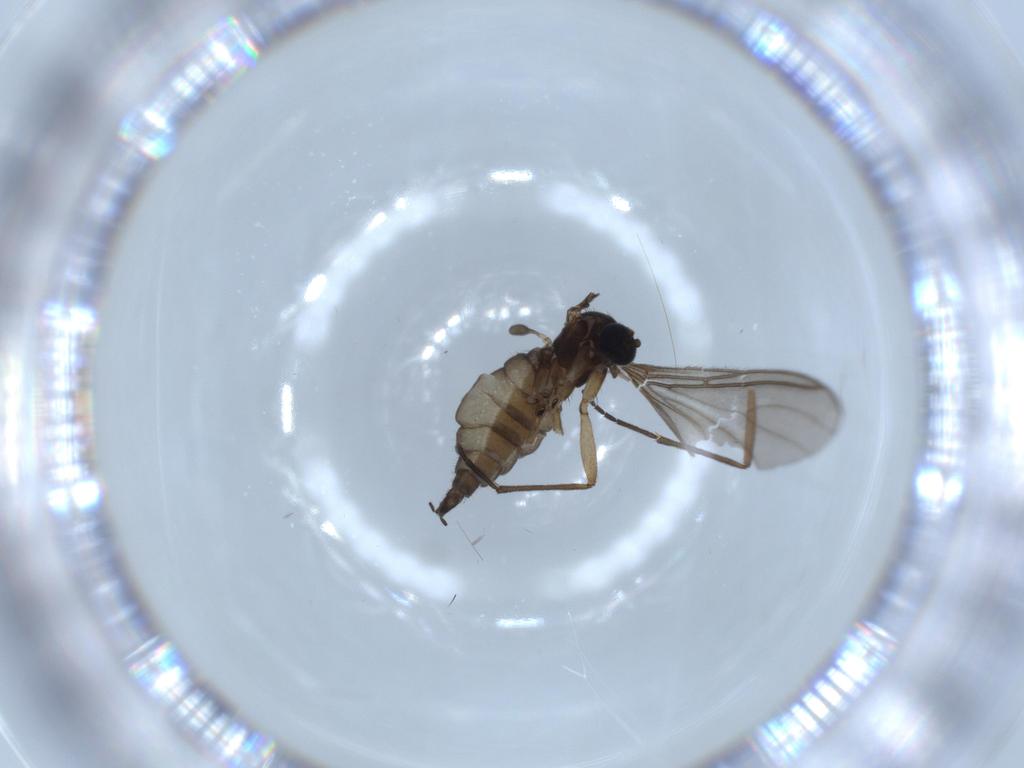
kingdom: Animalia
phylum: Arthropoda
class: Insecta
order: Diptera
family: Sciaridae
